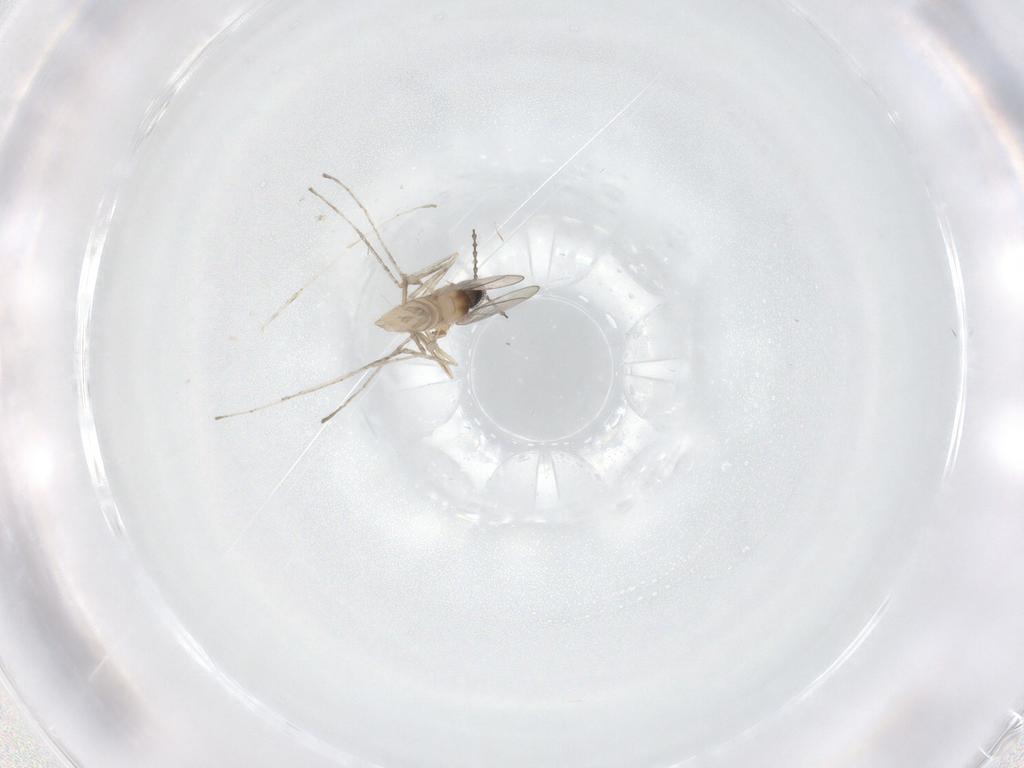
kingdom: Animalia
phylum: Arthropoda
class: Insecta
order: Diptera
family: Cecidomyiidae
